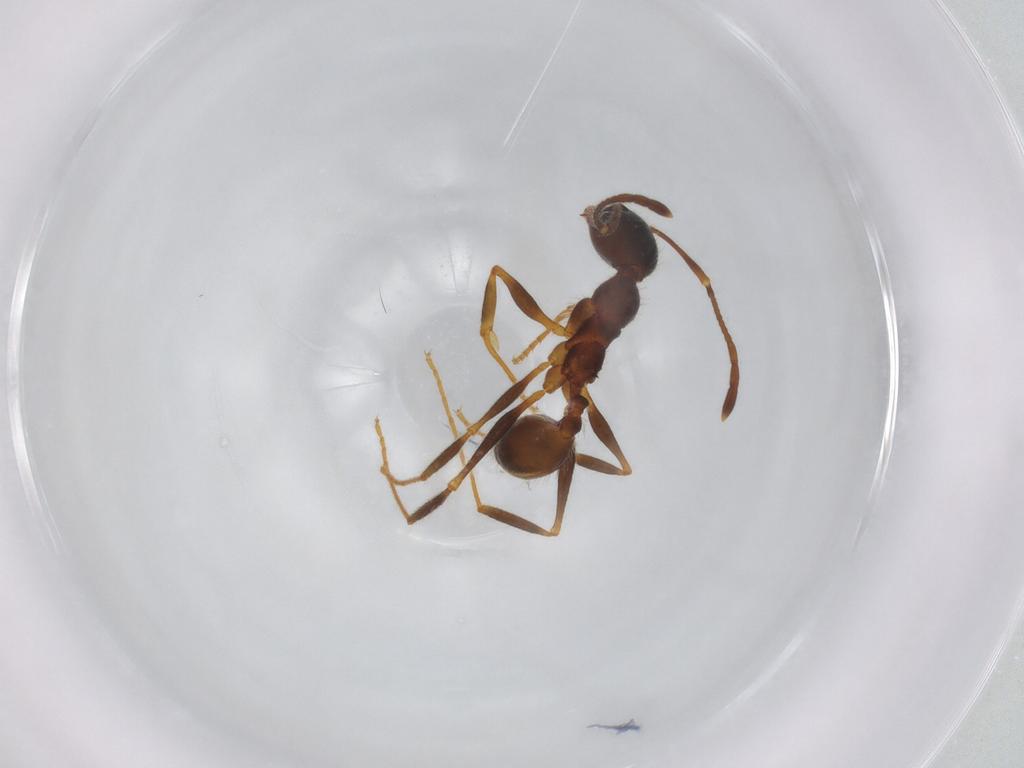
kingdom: Animalia
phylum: Arthropoda
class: Insecta
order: Hymenoptera
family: Formicidae
